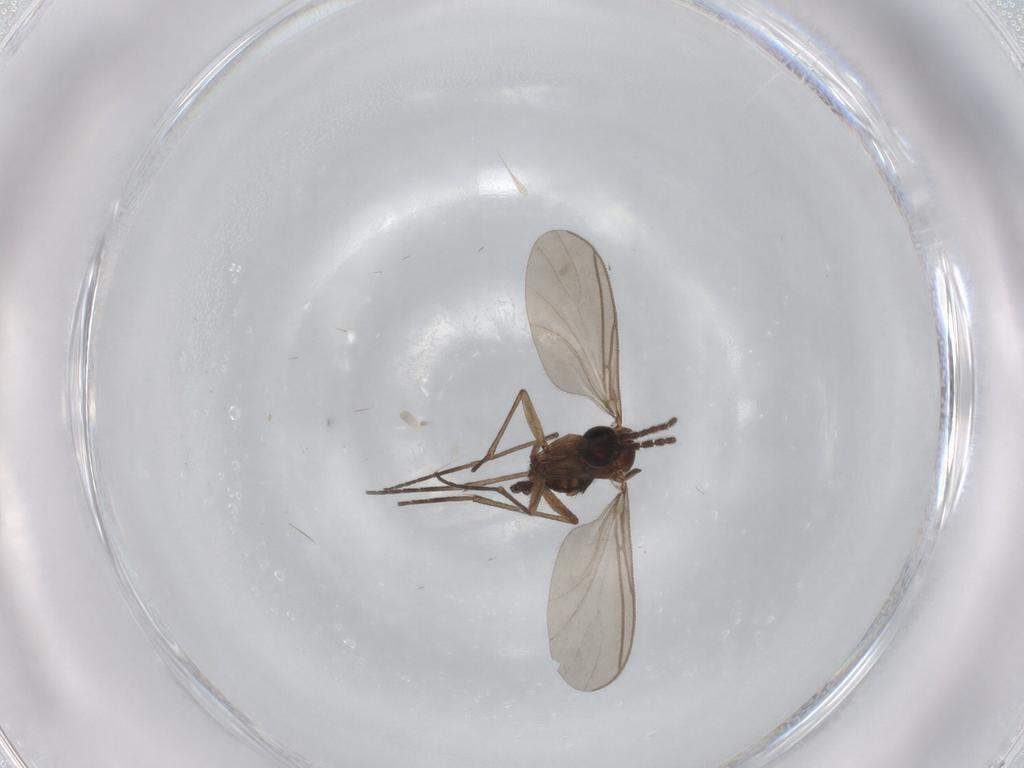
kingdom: Animalia
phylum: Arthropoda
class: Insecta
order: Diptera
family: Sciaridae
